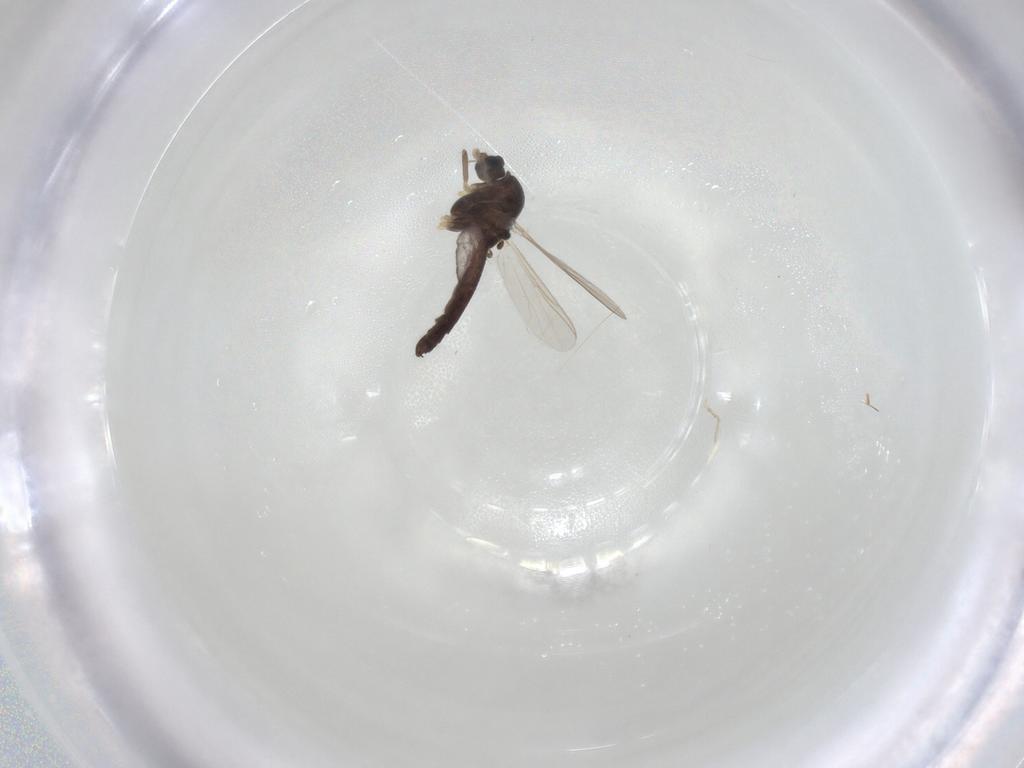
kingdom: Animalia
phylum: Arthropoda
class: Insecta
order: Diptera
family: Chironomidae
